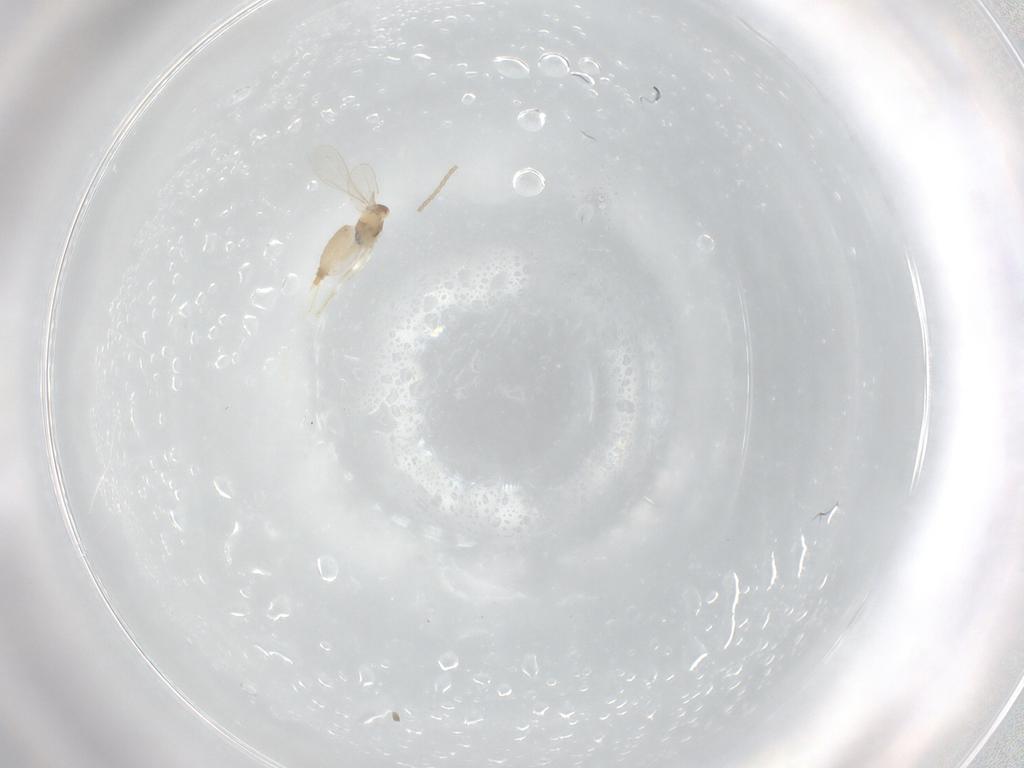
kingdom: Animalia
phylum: Arthropoda
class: Insecta
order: Diptera
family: Cecidomyiidae
